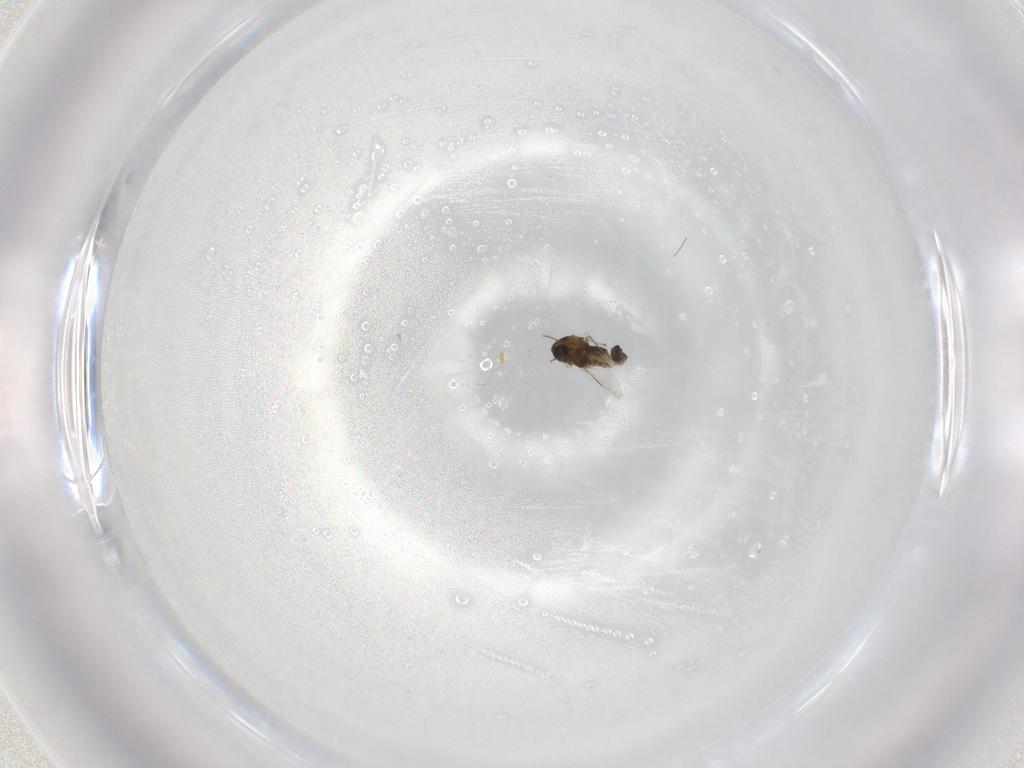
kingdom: Animalia
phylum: Arthropoda
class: Insecta
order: Diptera
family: Chironomidae
